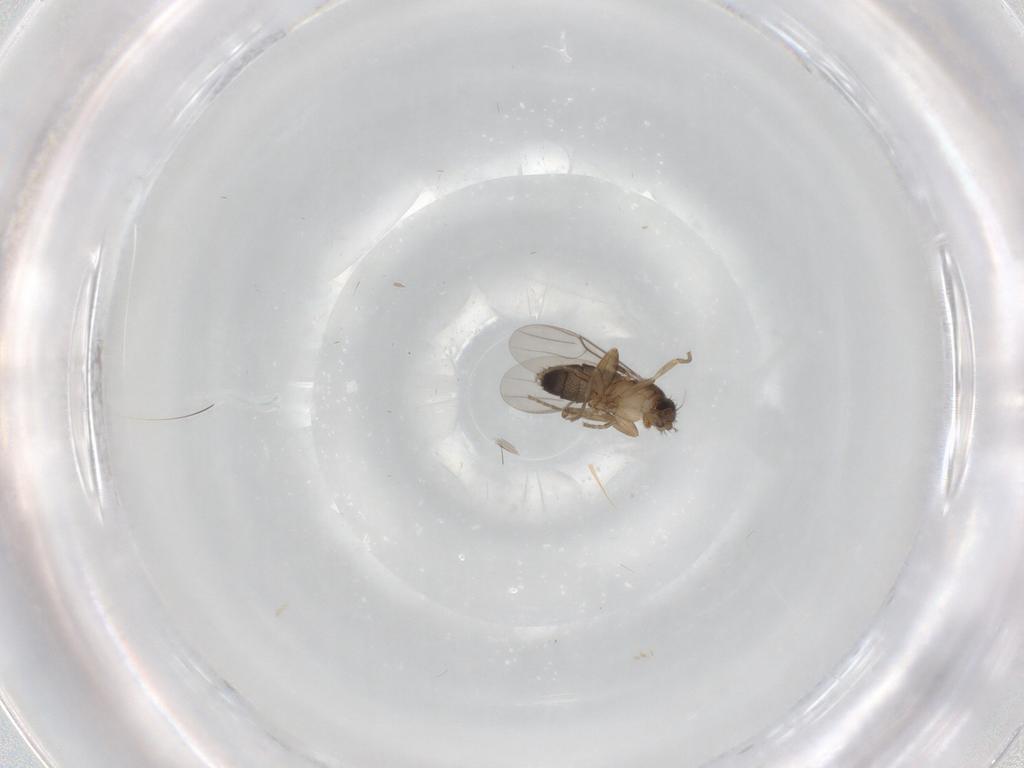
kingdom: Animalia
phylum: Arthropoda
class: Insecta
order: Diptera
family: Phoridae
